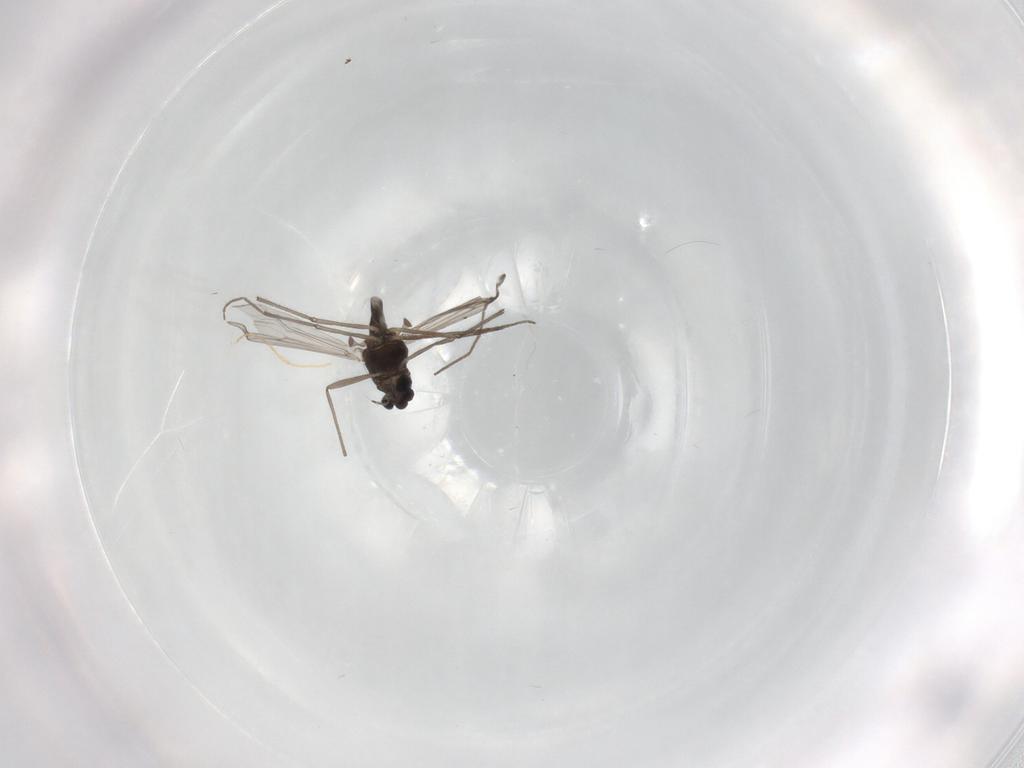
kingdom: Animalia
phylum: Arthropoda
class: Insecta
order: Diptera
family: Chironomidae
